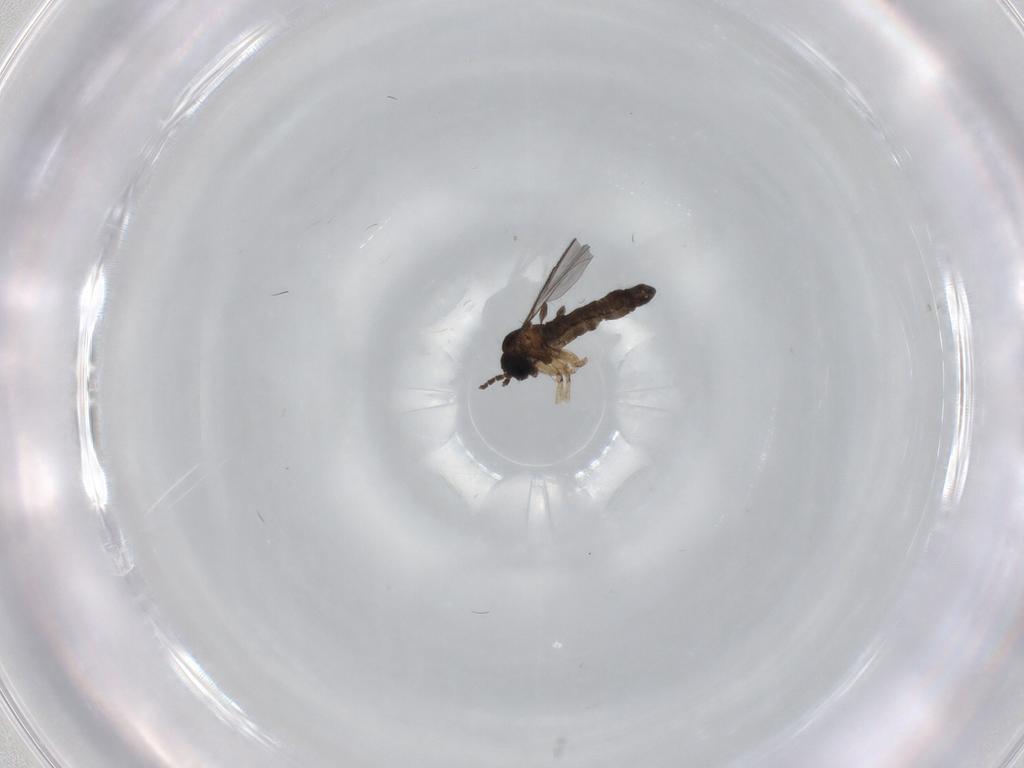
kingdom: Animalia
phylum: Arthropoda
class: Insecta
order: Diptera
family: Sciaridae
